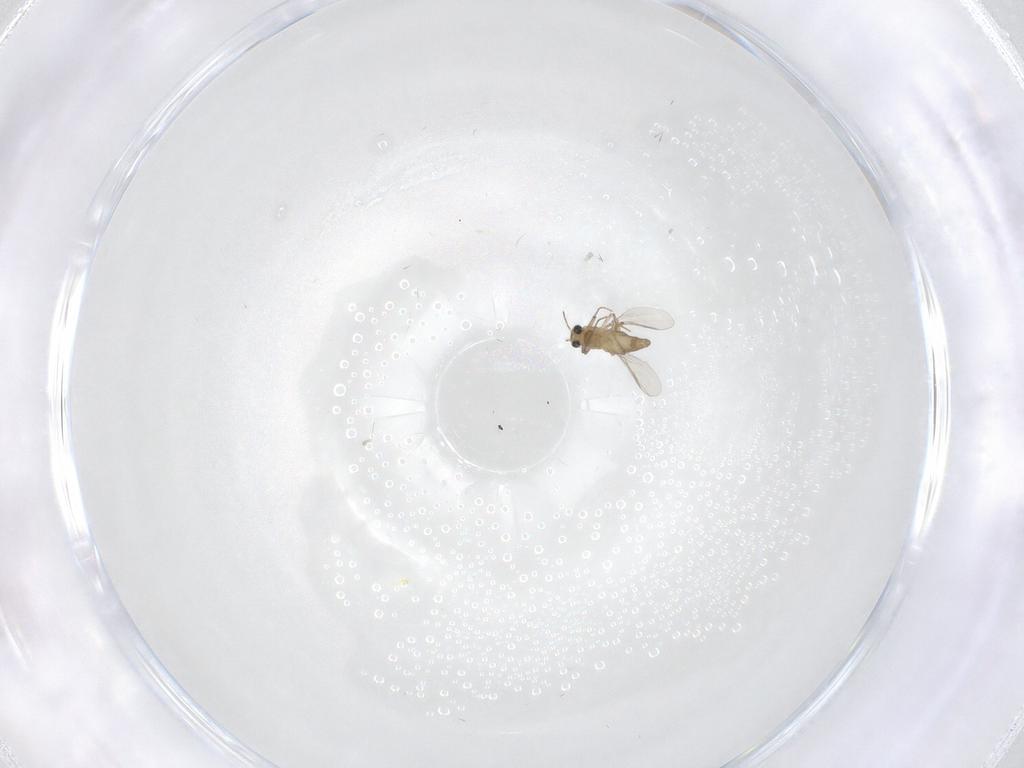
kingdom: Animalia
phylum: Arthropoda
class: Insecta
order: Diptera
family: Chironomidae
